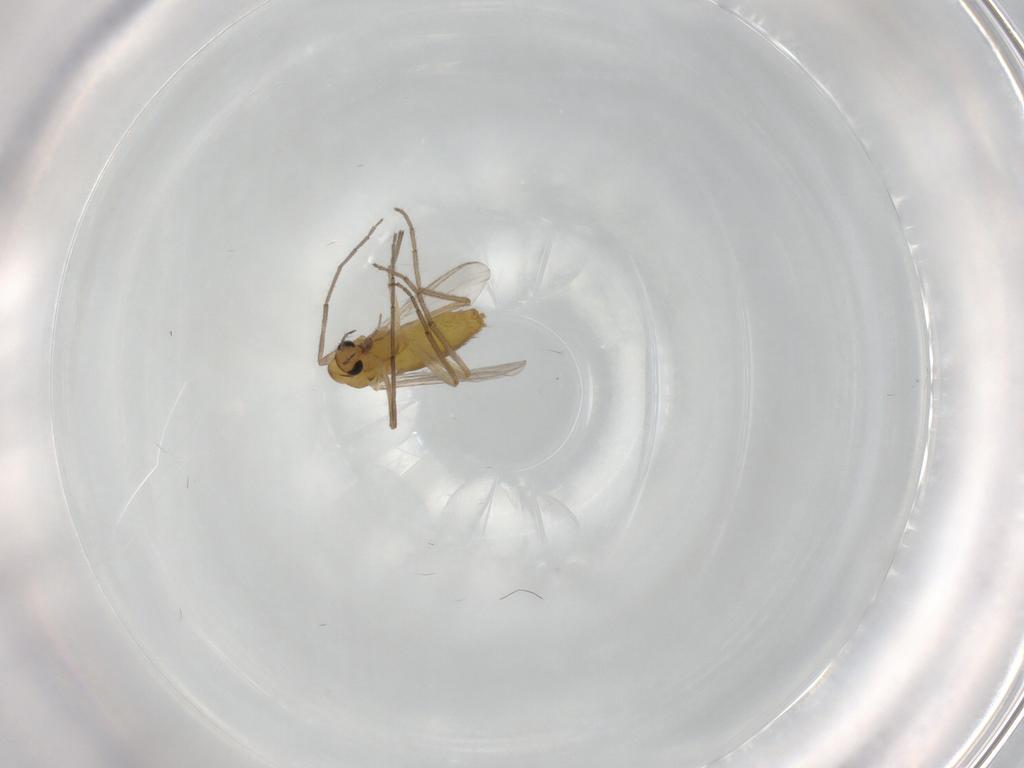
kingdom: Animalia
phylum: Arthropoda
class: Insecta
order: Diptera
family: Chironomidae
